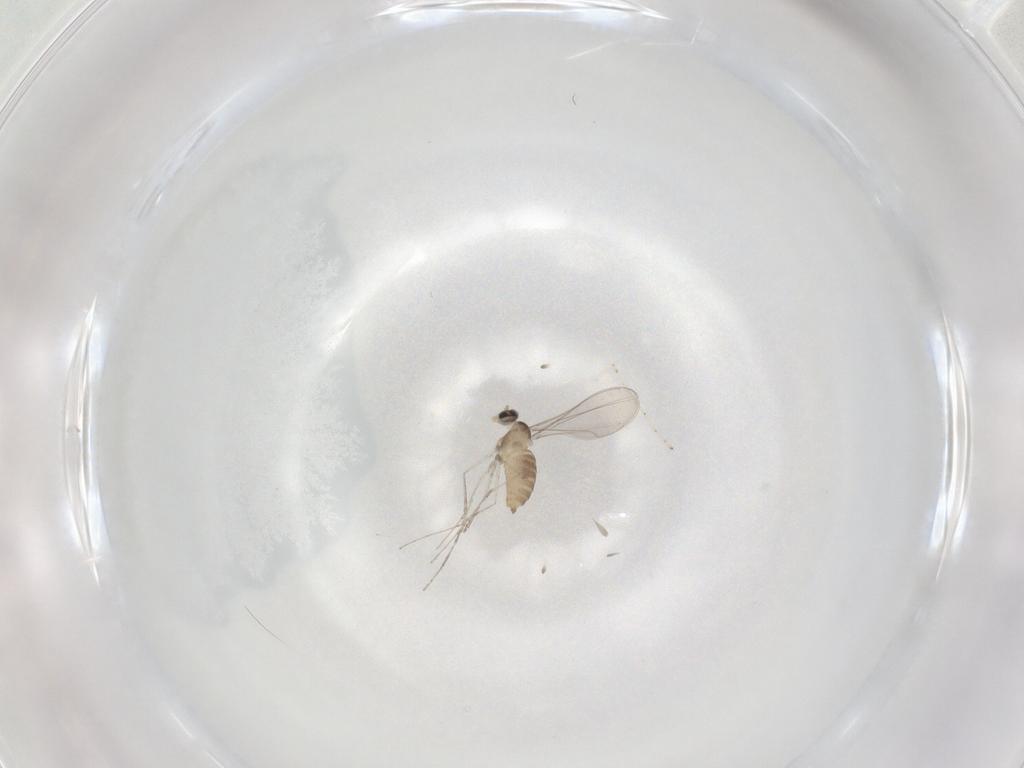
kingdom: Animalia
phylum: Arthropoda
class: Insecta
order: Diptera
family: Cecidomyiidae
